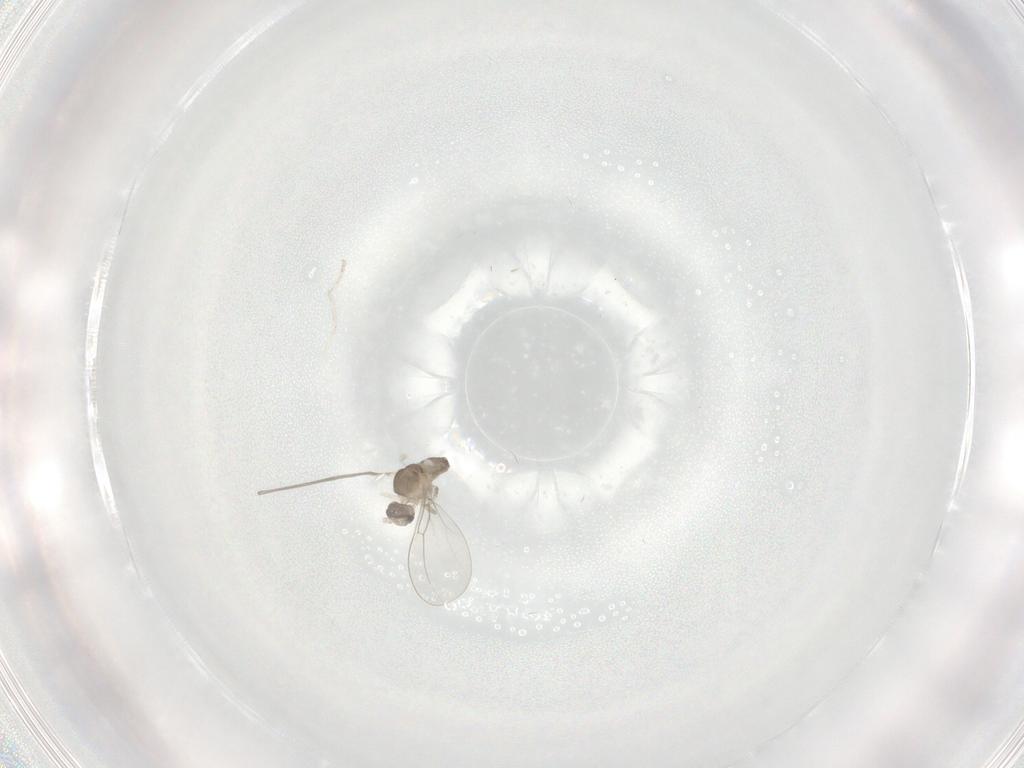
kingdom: Animalia
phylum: Arthropoda
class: Insecta
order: Diptera
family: Cecidomyiidae
